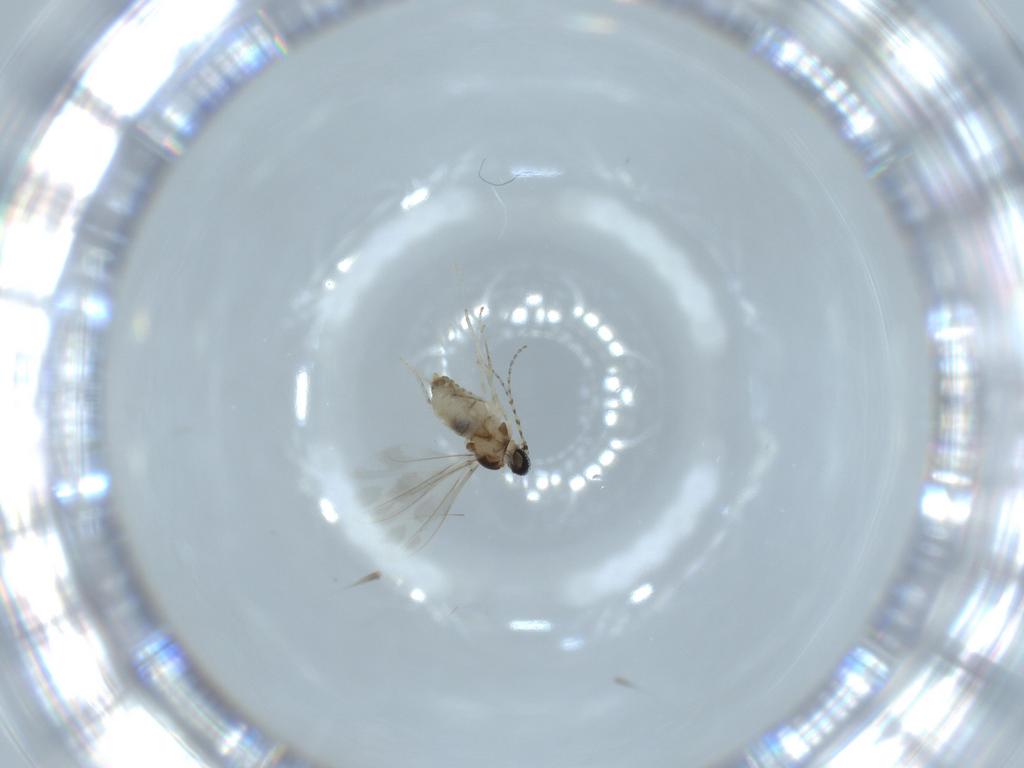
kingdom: Animalia
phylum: Arthropoda
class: Insecta
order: Diptera
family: Cecidomyiidae
